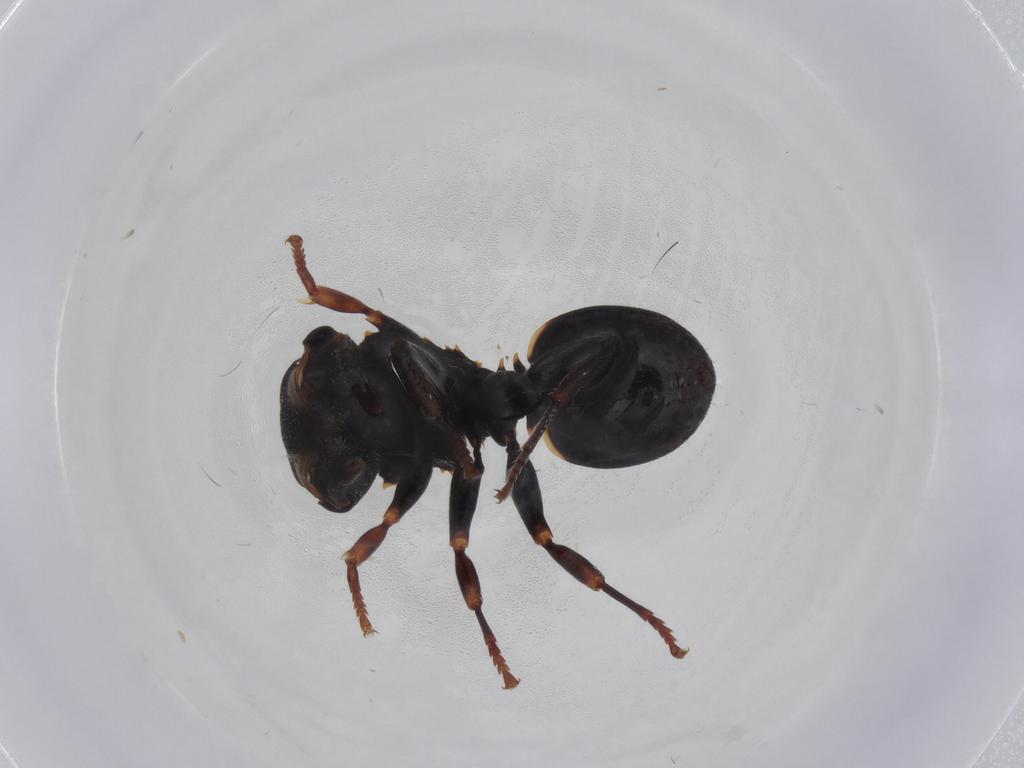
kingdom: Animalia
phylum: Arthropoda
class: Insecta
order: Hymenoptera
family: Formicidae
